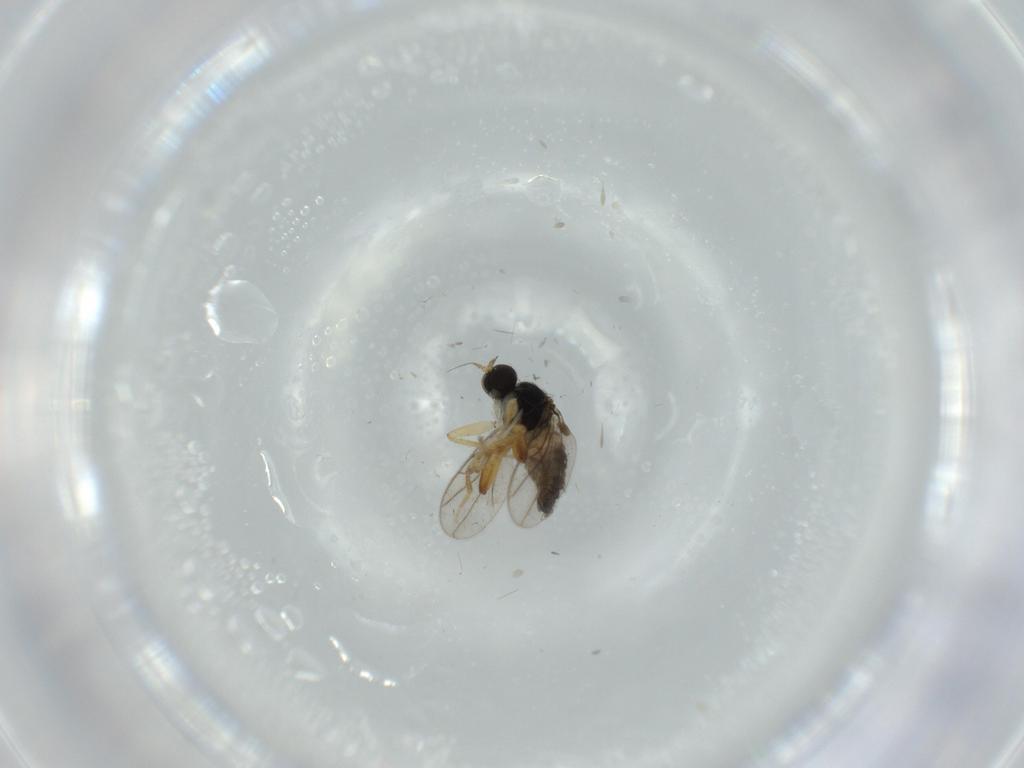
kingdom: Animalia
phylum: Arthropoda
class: Insecta
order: Diptera
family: Hybotidae
